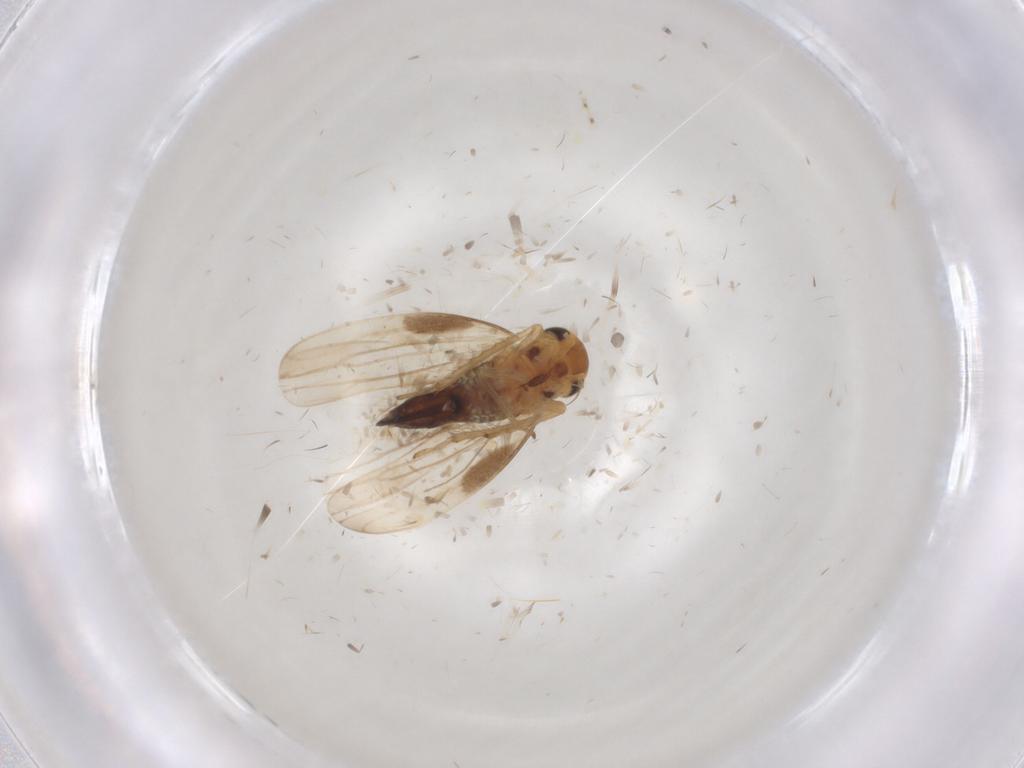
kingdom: Animalia
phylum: Arthropoda
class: Insecta
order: Hemiptera
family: Cicadellidae
